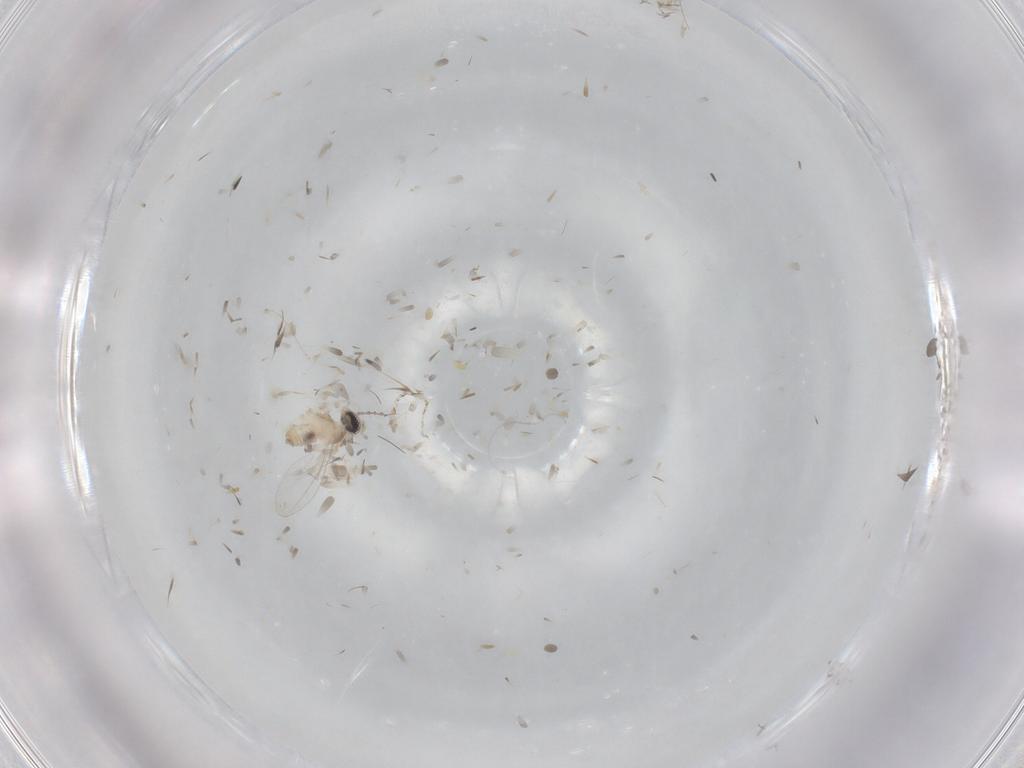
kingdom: Animalia
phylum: Arthropoda
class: Insecta
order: Diptera
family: Cecidomyiidae
